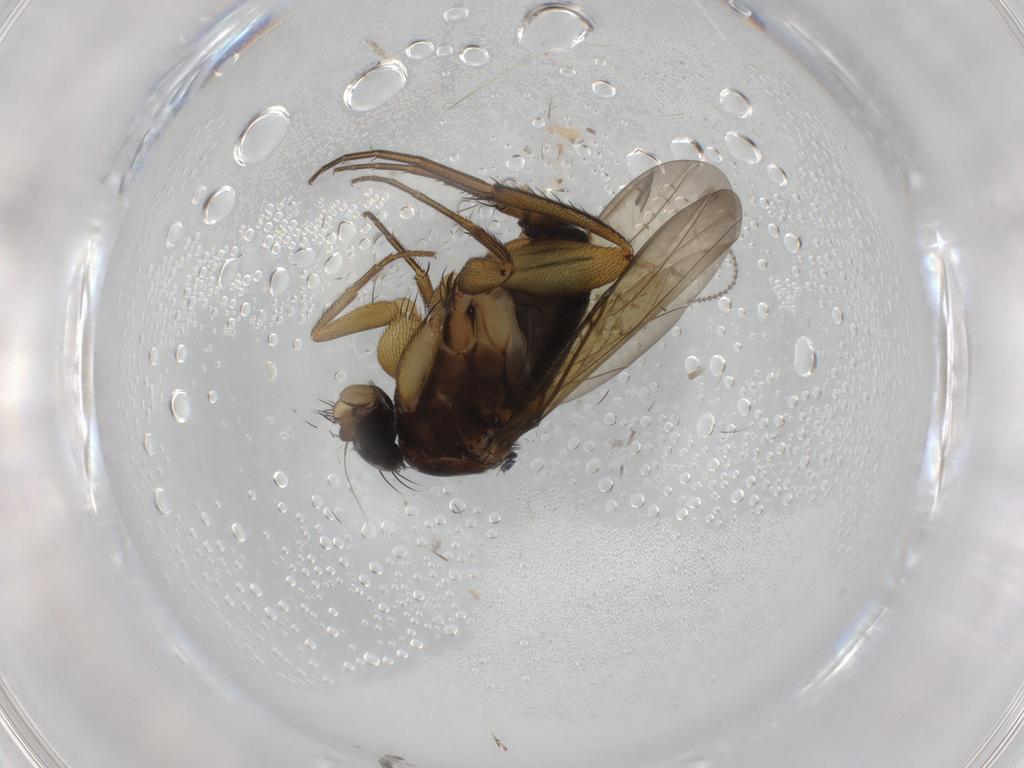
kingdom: Animalia
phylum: Arthropoda
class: Insecta
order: Diptera
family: Phoridae
